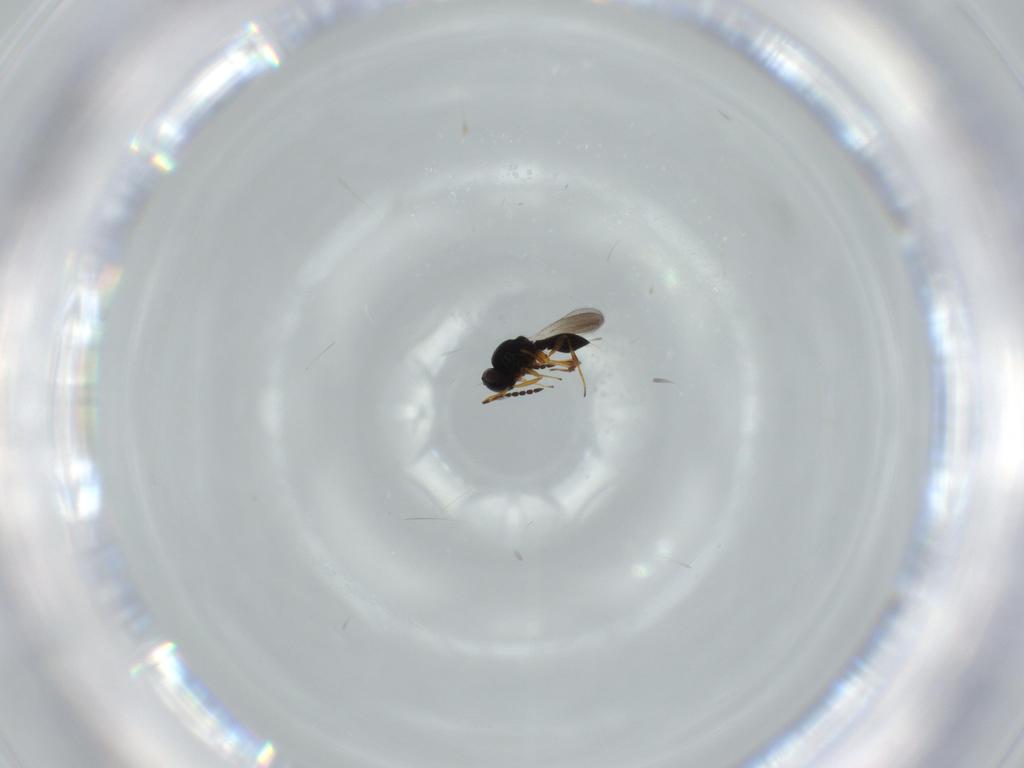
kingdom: Animalia
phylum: Arthropoda
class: Insecta
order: Hymenoptera
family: Platygastridae
